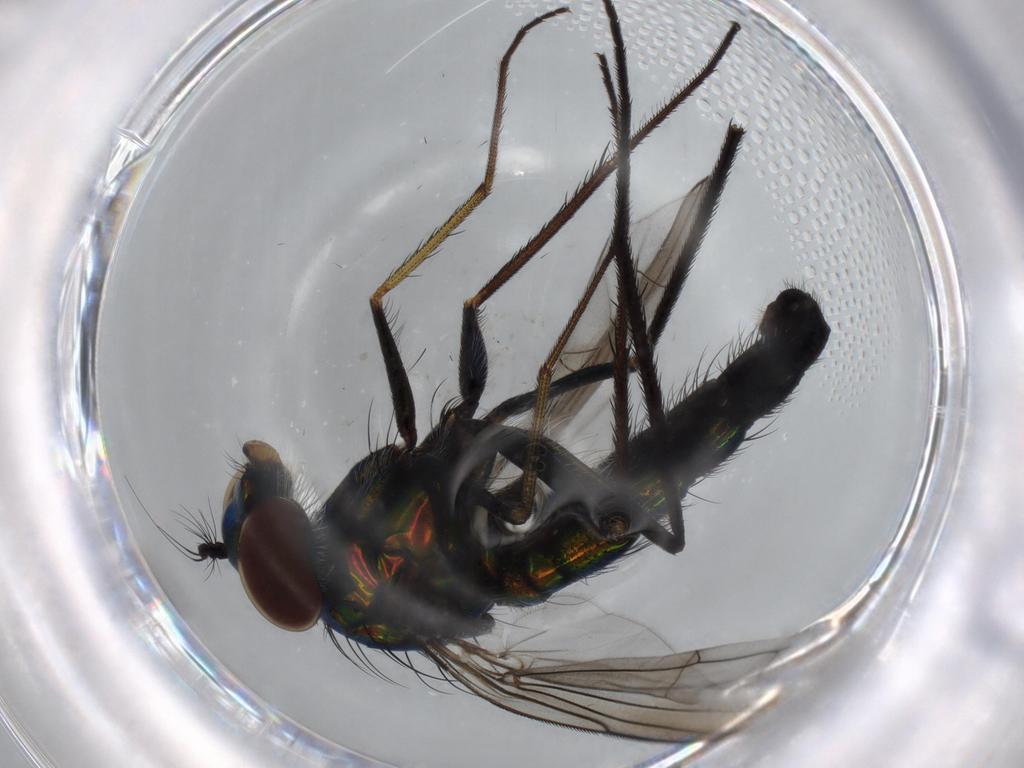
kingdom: Animalia
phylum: Arthropoda
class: Insecta
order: Diptera
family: Dolichopodidae
